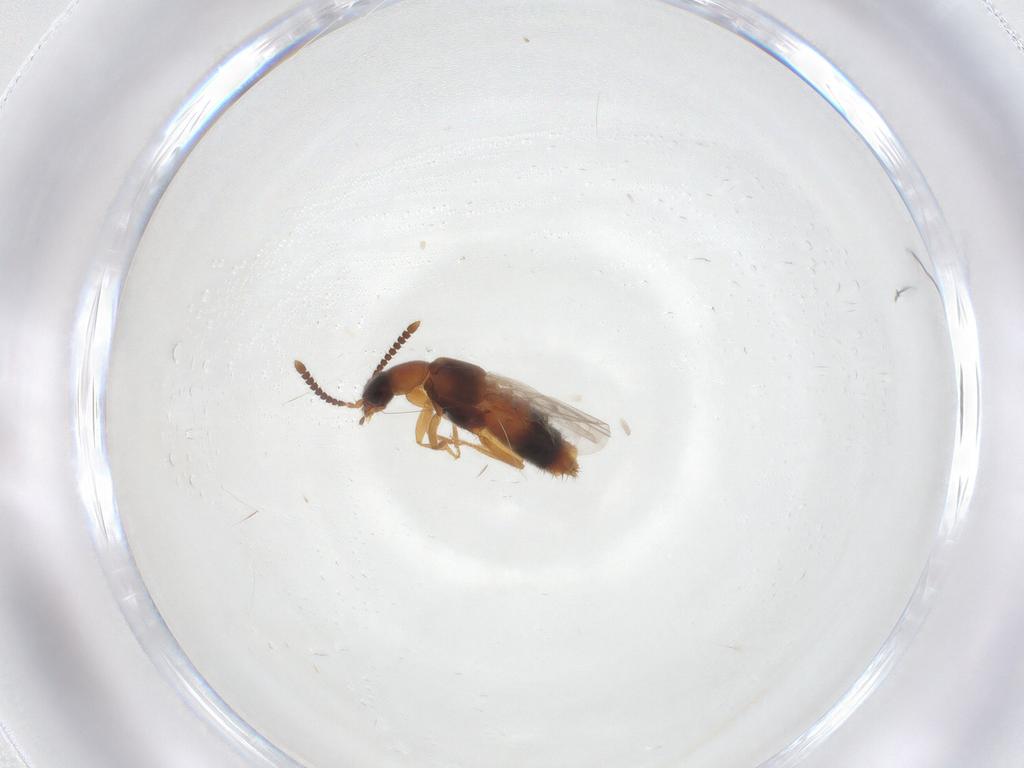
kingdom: Animalia
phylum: Arthropoda
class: Insecta
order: Coleoptera
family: Staphylinidae
